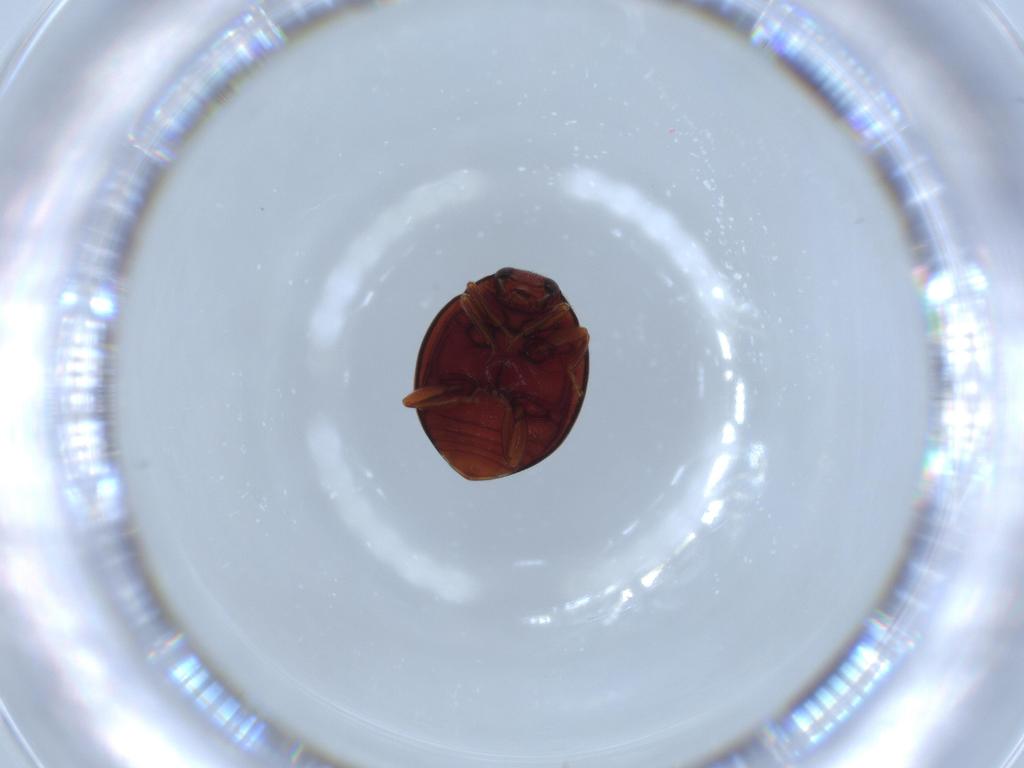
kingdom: Animalia
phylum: Arthropoda
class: Insecta
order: Coleoptera
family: Coccinellidae
